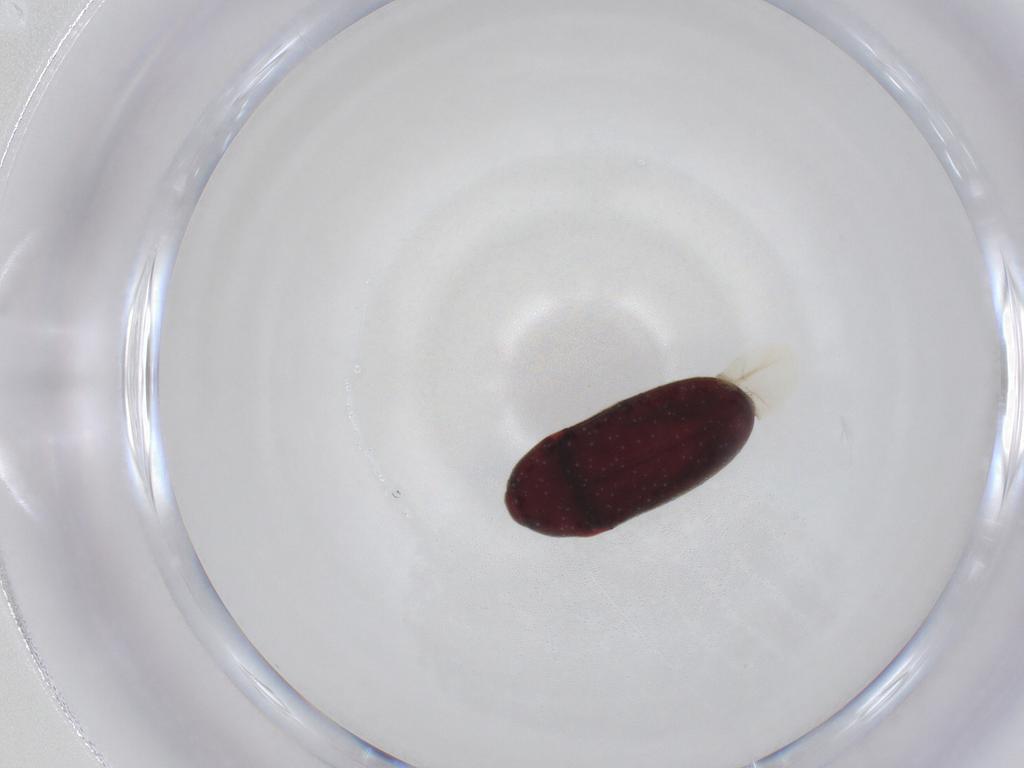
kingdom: Animalia
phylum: Arthropoda
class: Insecta
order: Coleoptera
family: Throscidae
